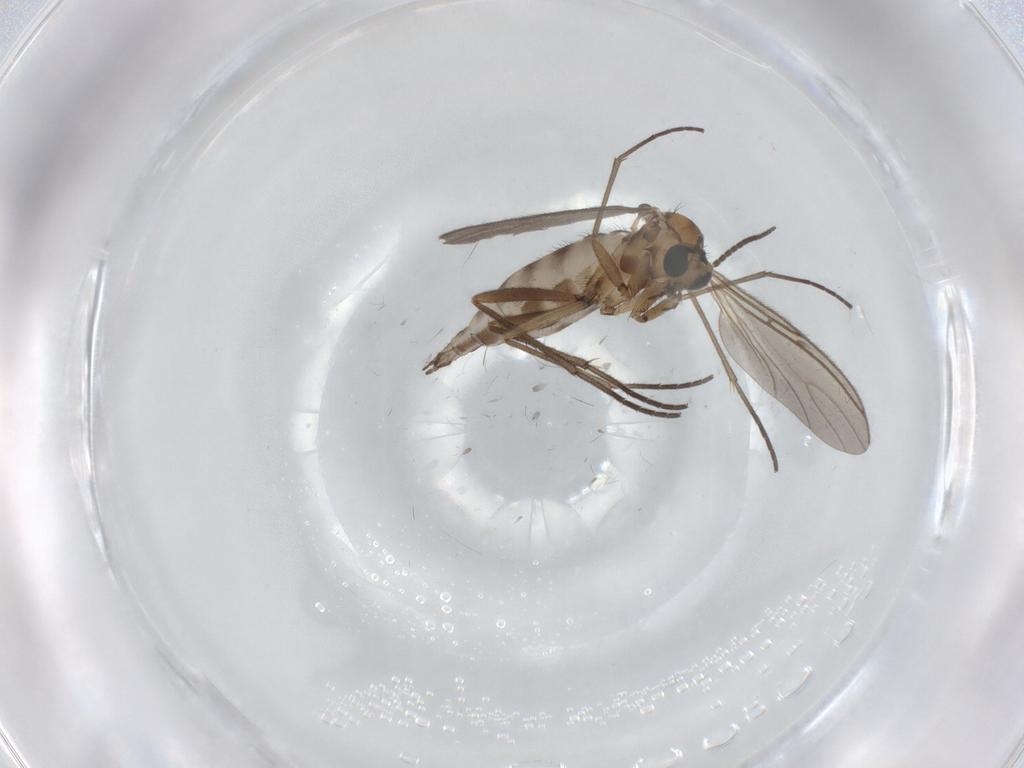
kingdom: Animalia
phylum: Arthropoda
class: Insecta
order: Diptera
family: Sciaridae
